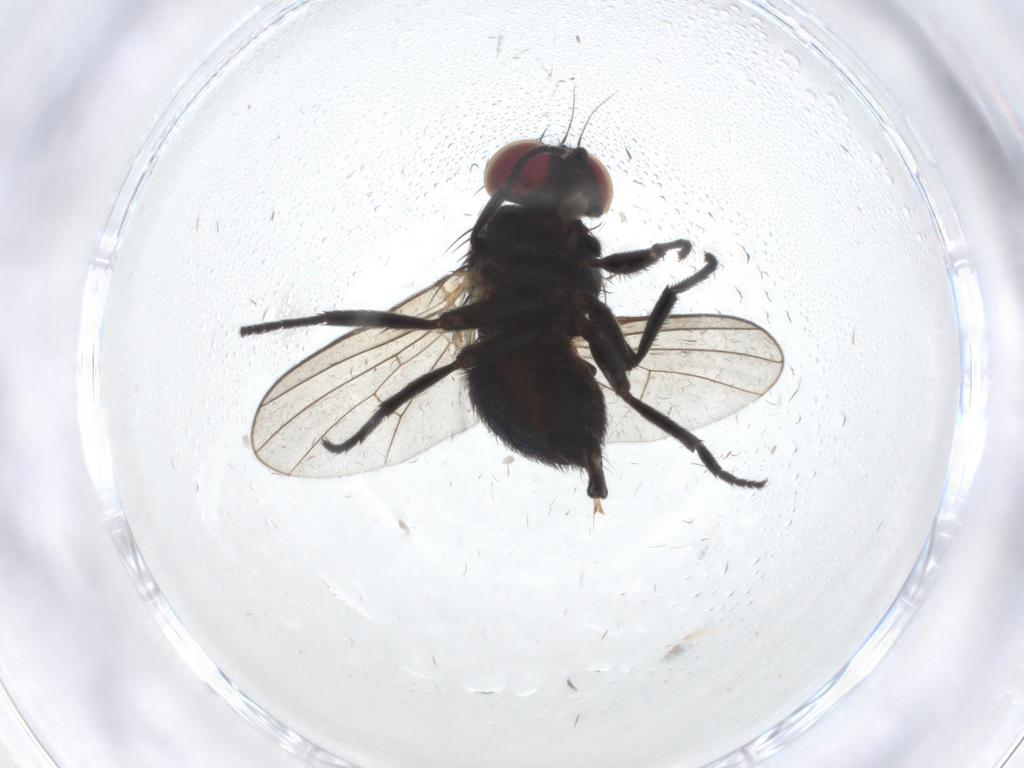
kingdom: Animalia
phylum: Arthropoda
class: Insecta
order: Diptera
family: Agromyzidae
